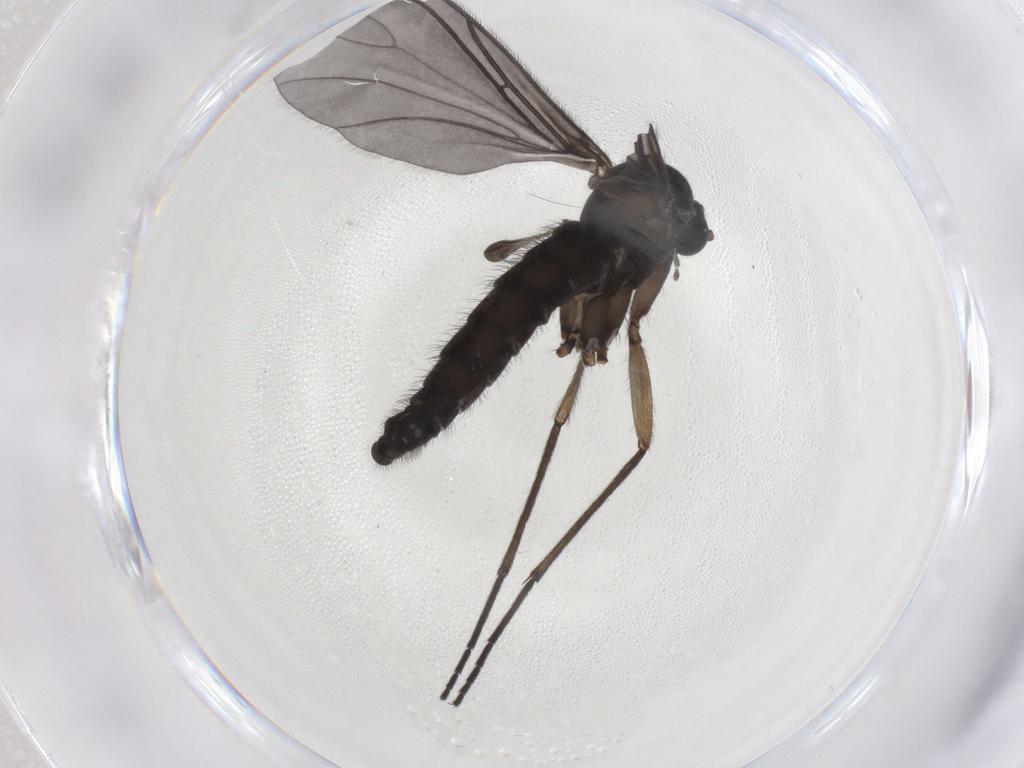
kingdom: Animalia
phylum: Arthropoda
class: Insecta
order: Diptera
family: Sciaridae
